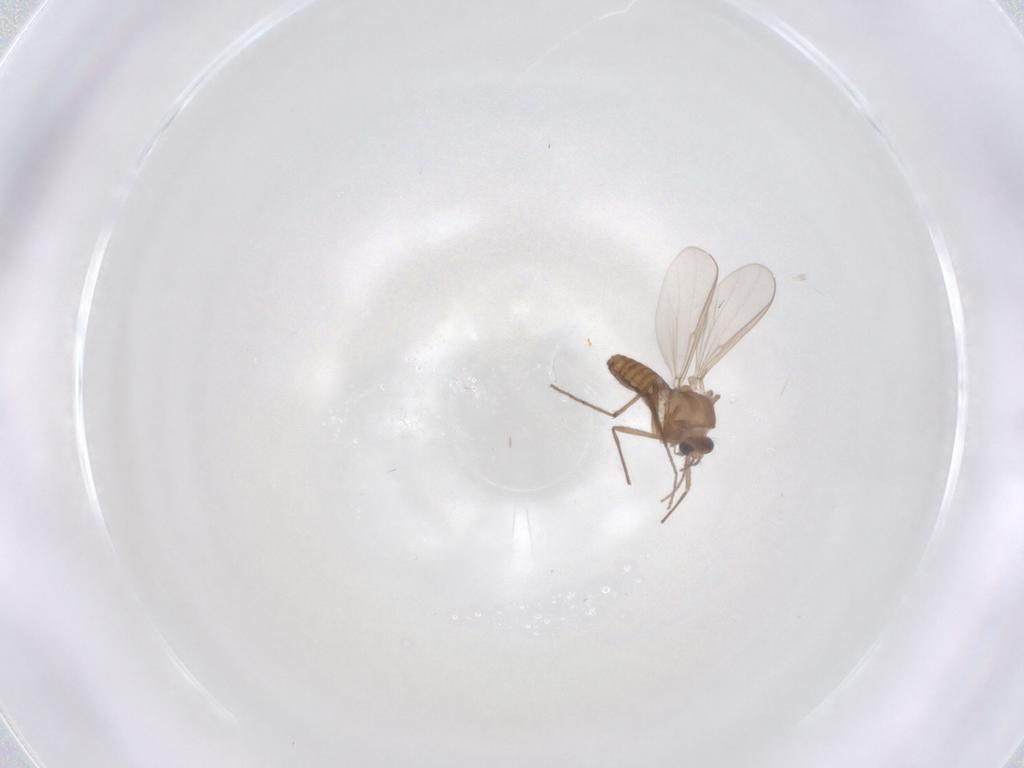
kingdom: Animalia
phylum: Arthropoda
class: Insecta
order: Diptera
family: Chironomidae
